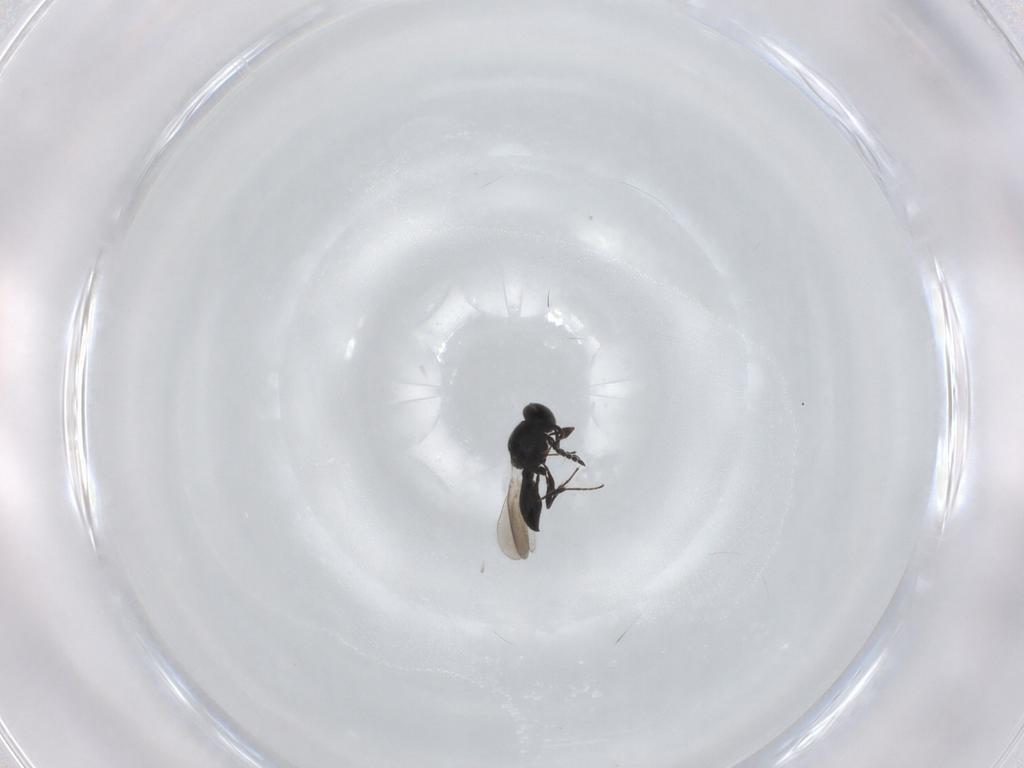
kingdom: Animalia
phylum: Arthropoda
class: Insecta
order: Hymenoptera
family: Platygastridae
